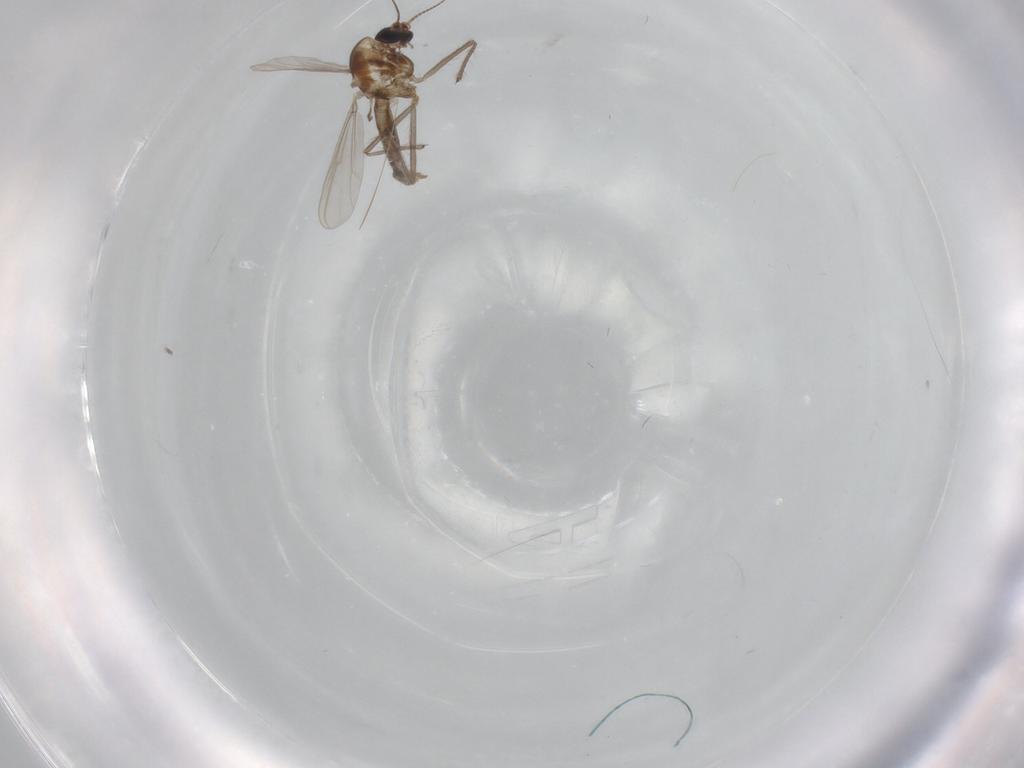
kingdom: Animalia
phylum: Arthropoda
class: Insecta
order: Diptera
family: Chironomidae
